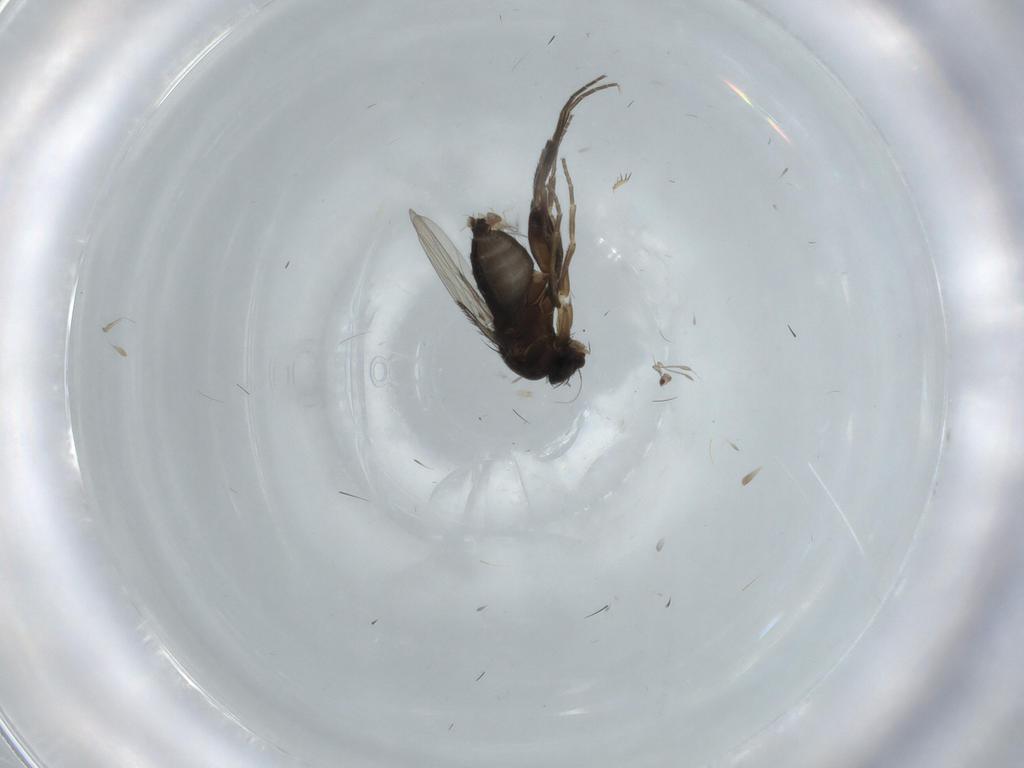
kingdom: Animalia
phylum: Arthropoda
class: Insecta
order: Diptera
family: Phoridae
